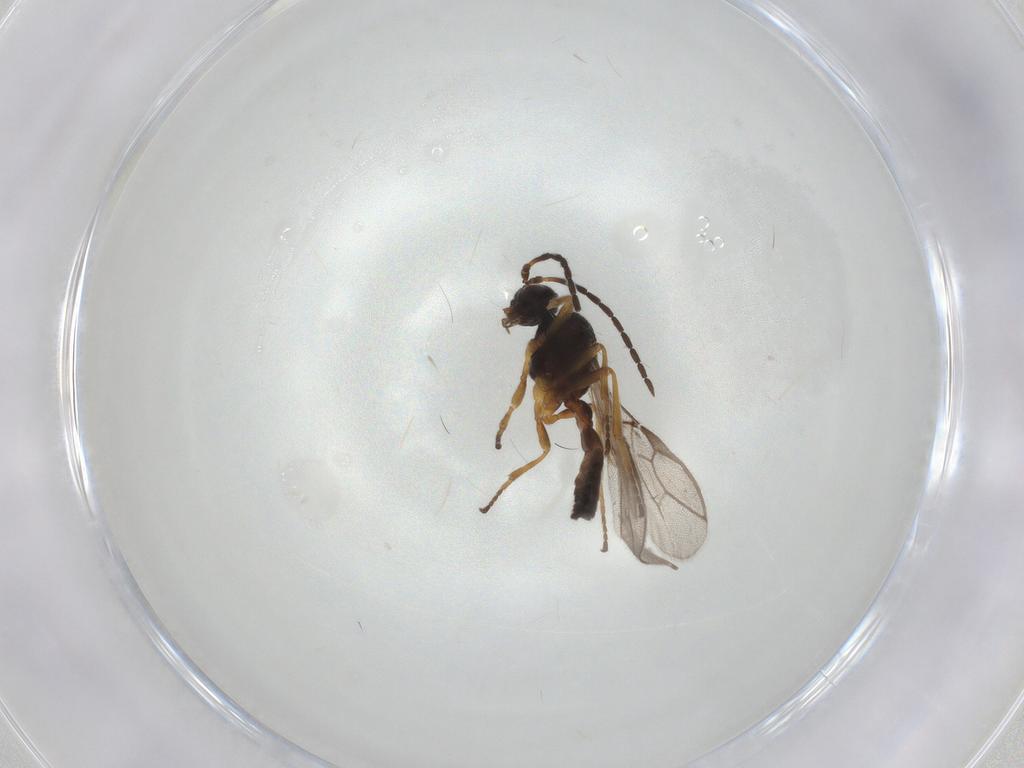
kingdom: Animalia
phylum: Arthropoda
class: Insecta
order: Hymenoptera
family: Braconidae
